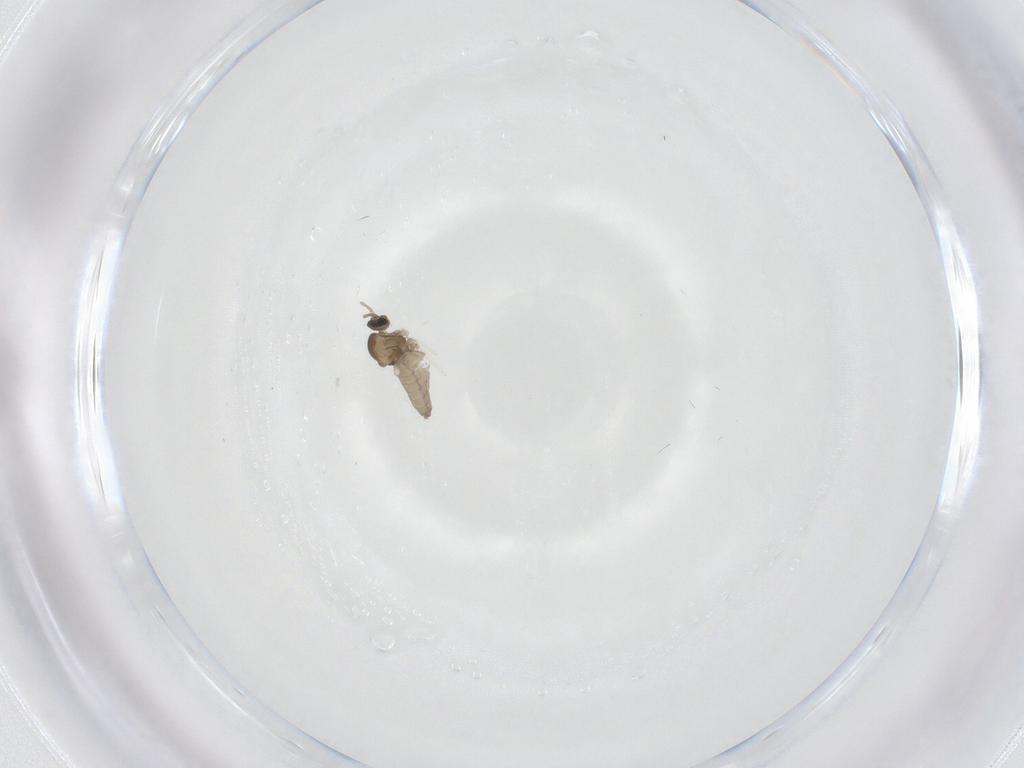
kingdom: Animalia
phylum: Arthropoda
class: Insecta
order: Diptera
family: Cecidomyiidae
